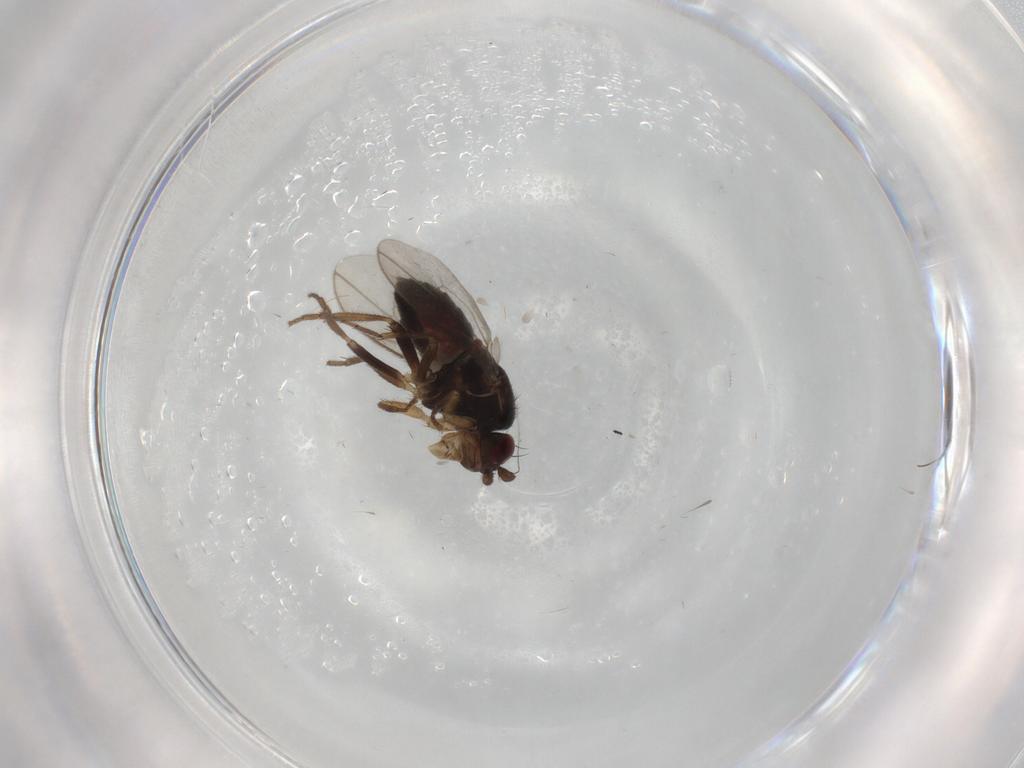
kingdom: Animalia
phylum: Arthropoda
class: Insecta
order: Diptera
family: Sphaeroceridae
